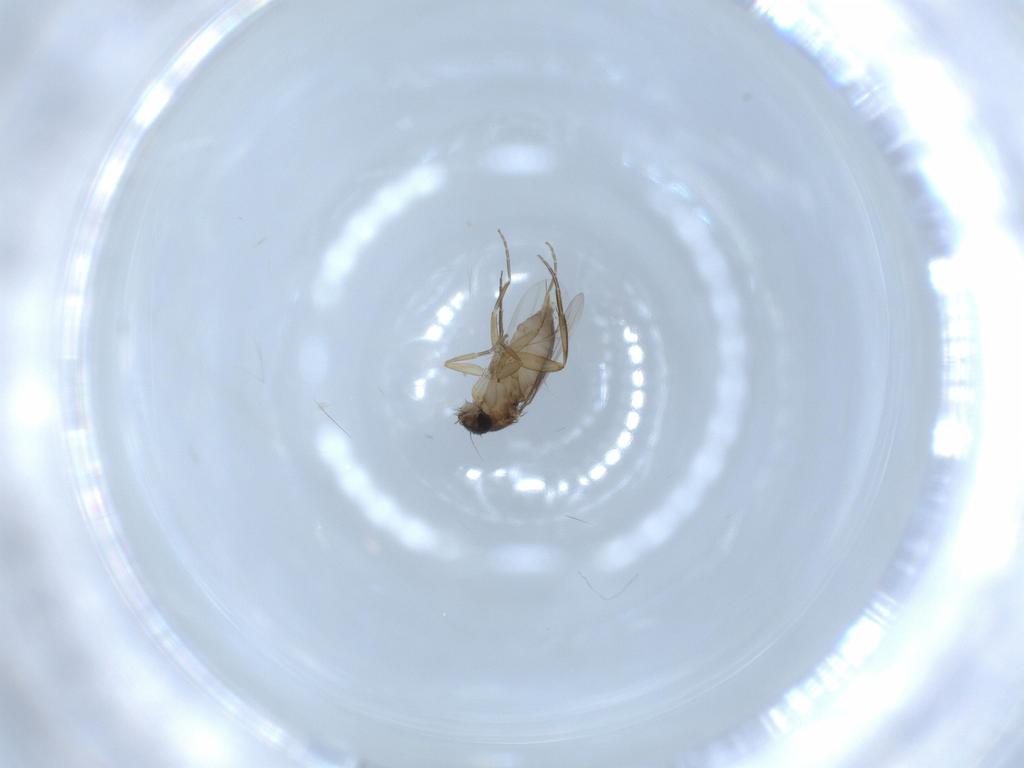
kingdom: Animalia
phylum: Arthropoda
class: Insecta
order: Diptera
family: Phoridae
